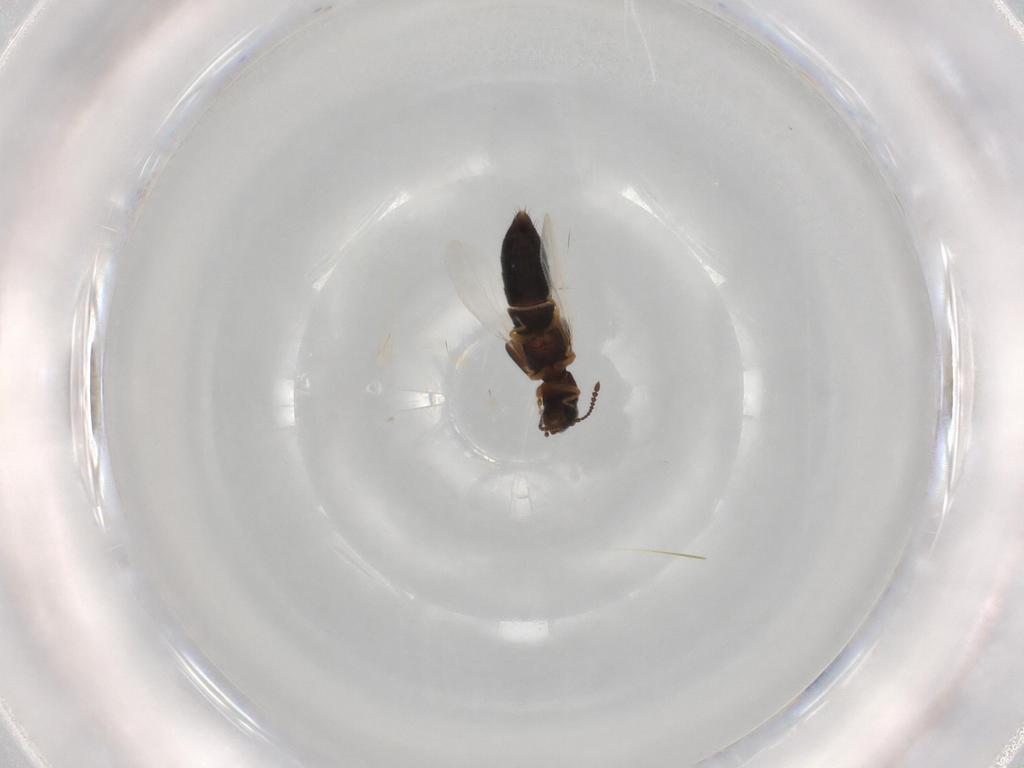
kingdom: Animalia
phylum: Arthropoda
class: Insecta
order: Coleoptera
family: Staphylinidae
